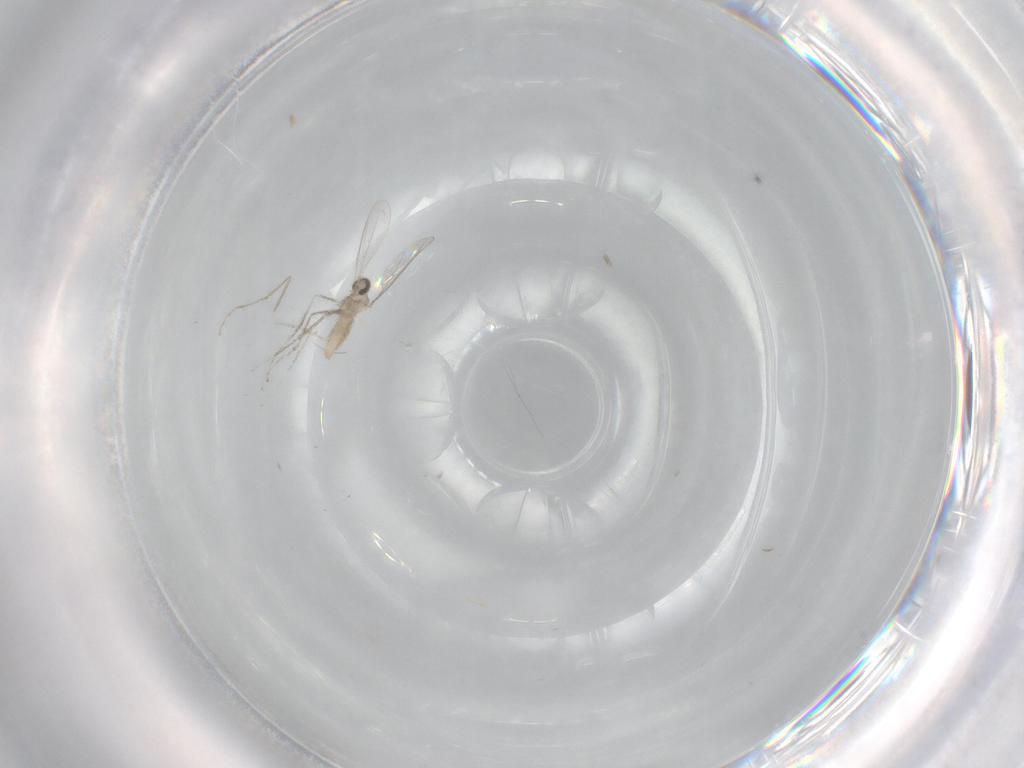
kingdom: Animalia
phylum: Arthropoda
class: Insecta
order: Diptera
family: Chironomidae
